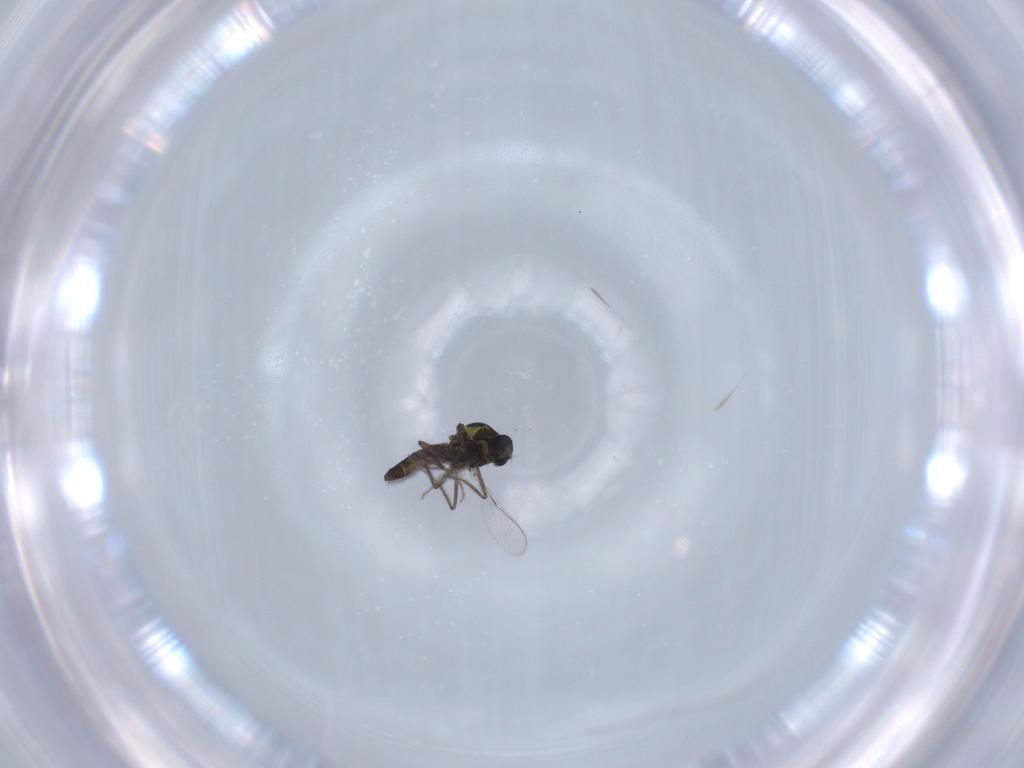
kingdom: Animalia
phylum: Arthropoda
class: Insecta
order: Diptera
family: Ceratopogonidae
